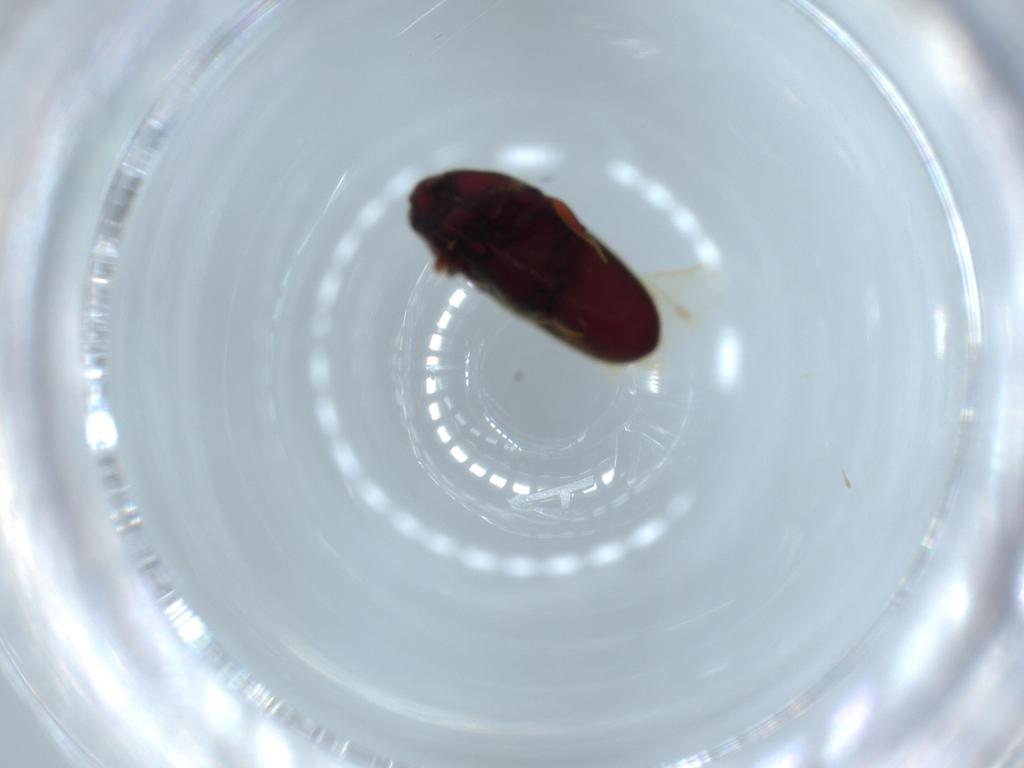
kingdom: Animalia
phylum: Arthropoda
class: Insecta
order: Coleoptera
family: Throscidae
